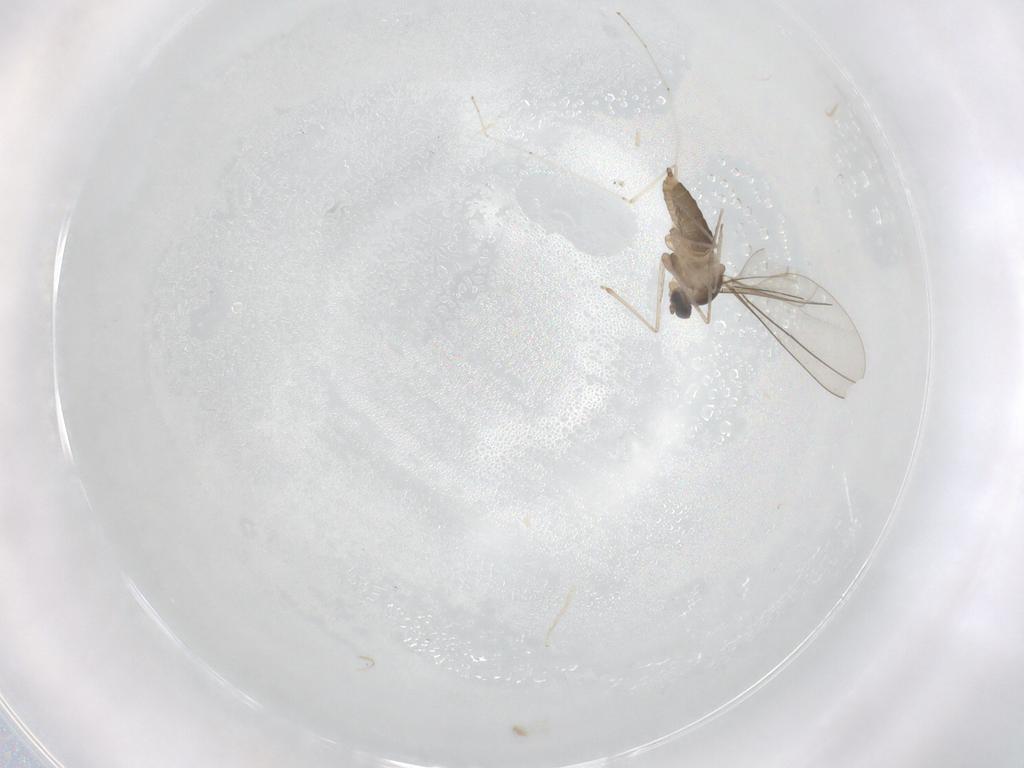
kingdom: Animalia
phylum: Arthropoda
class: Insecta
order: Diptera
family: Cecidomyiidae
